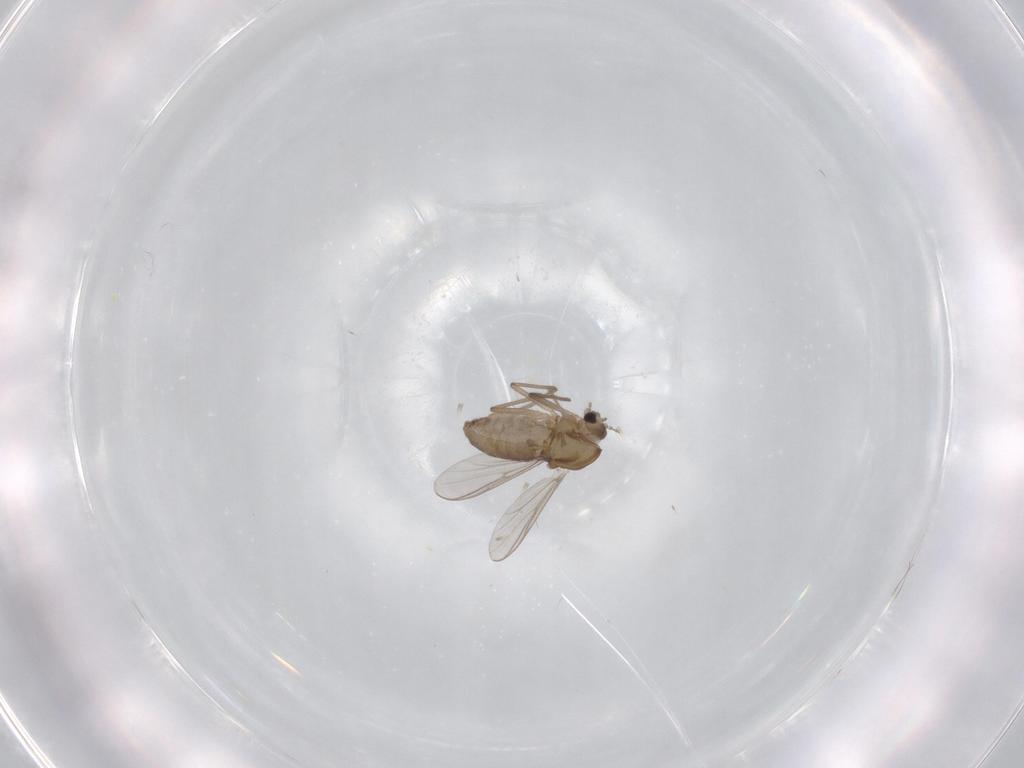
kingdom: Animalia
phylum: Arthropoda
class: Insecta
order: Diptera
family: Chironomidae
